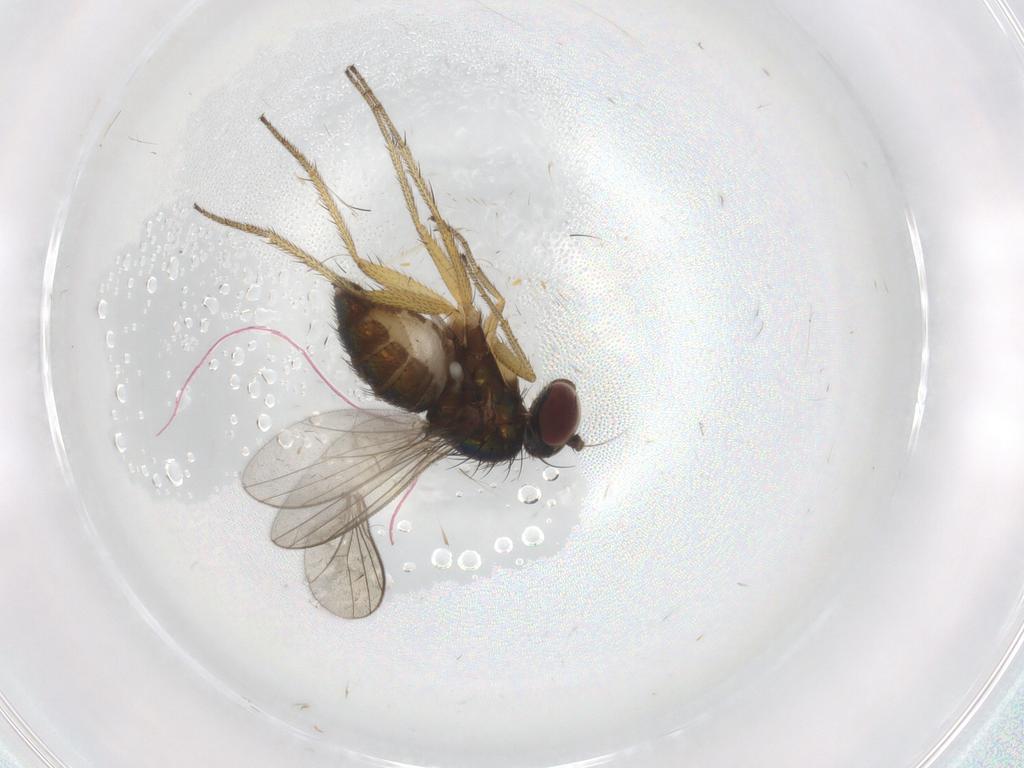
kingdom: Animalia
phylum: Arthropoda
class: Insecta
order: Diptera
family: Sciaridae
